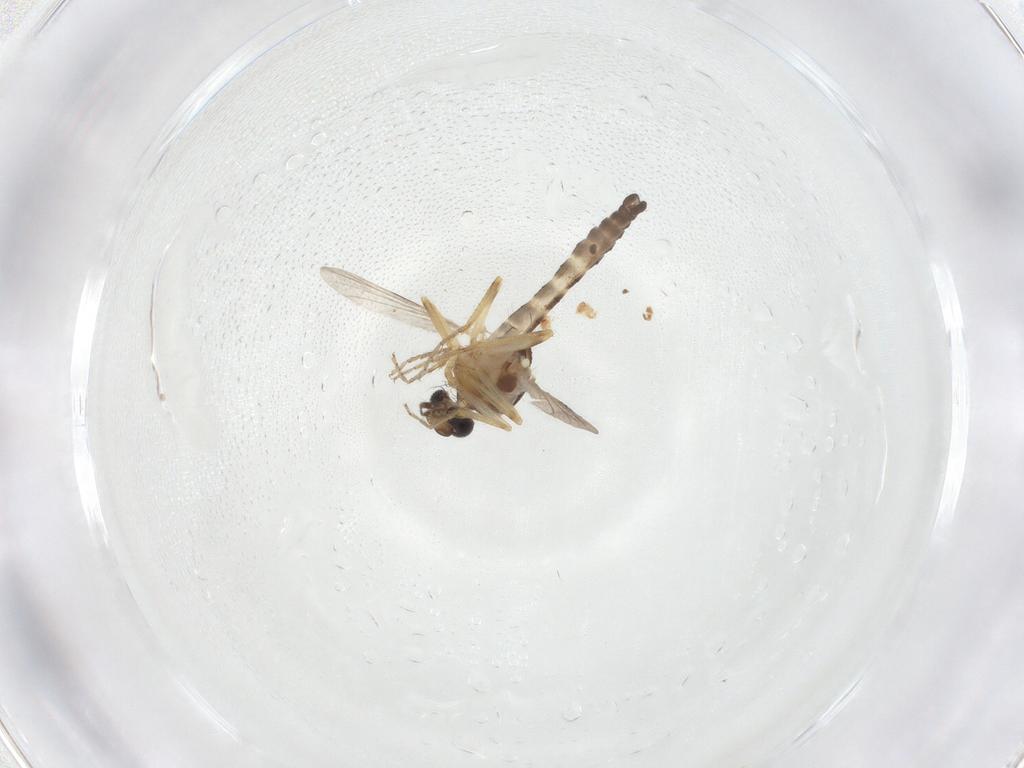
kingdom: Animalia
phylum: Arthropoda
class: Insecta
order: Diptera
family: Ceratopogonidae
